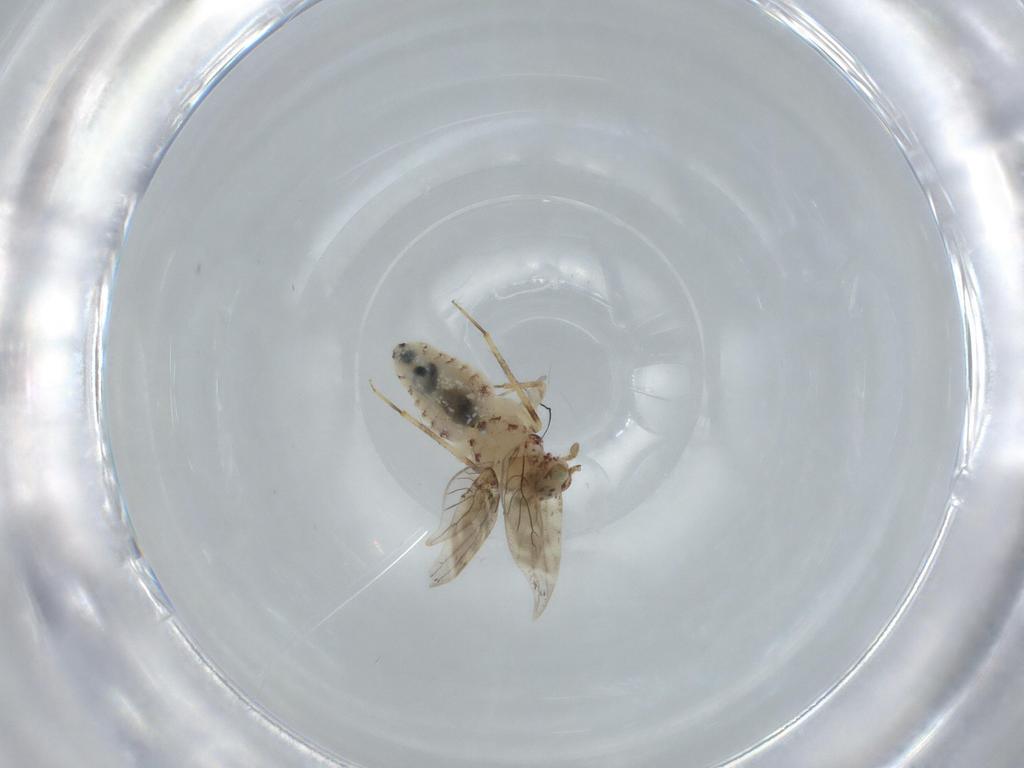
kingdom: Animalia
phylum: Arthropoda
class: Insecta
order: Psocodea
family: Lepidopsocidae
